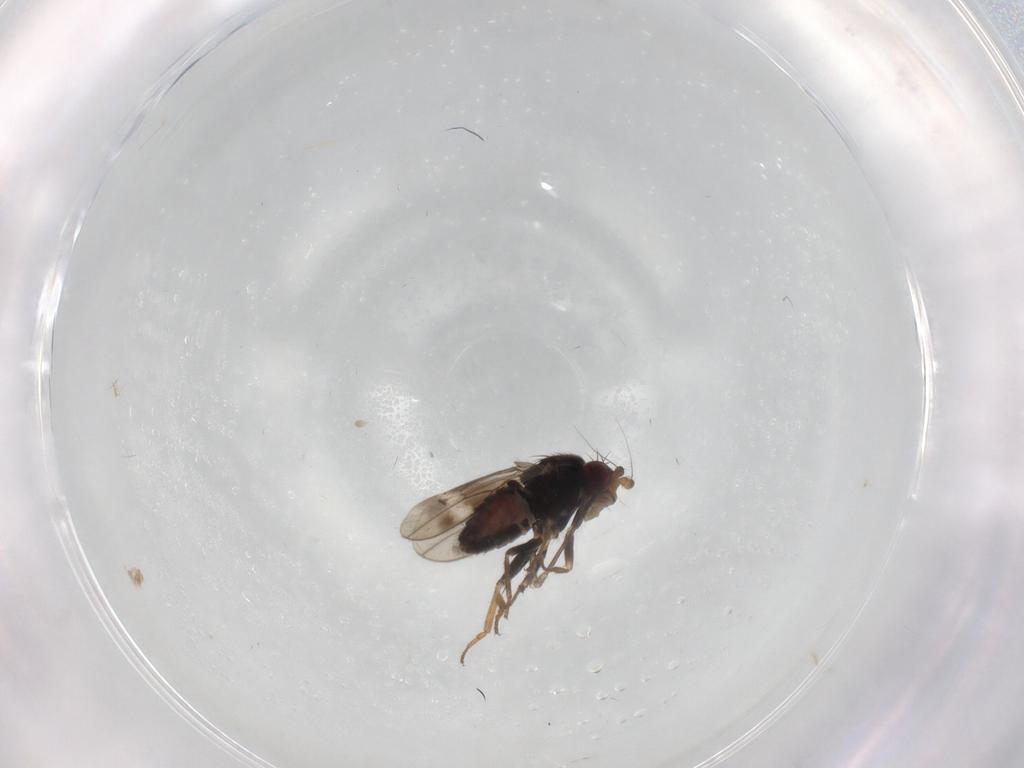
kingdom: Animalia
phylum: Arthropoda
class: Insecta
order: Diptera
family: Sphaeroceridae
